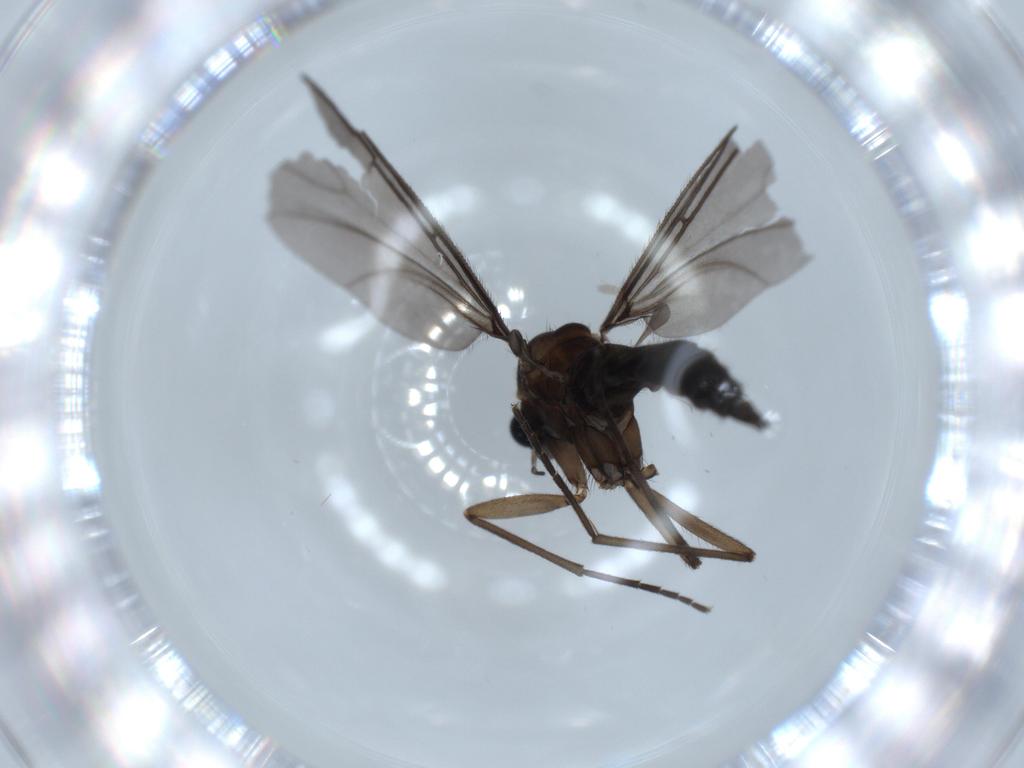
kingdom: Animalia
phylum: Arthropoda
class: Insecta
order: Diptera
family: Sciaridae
